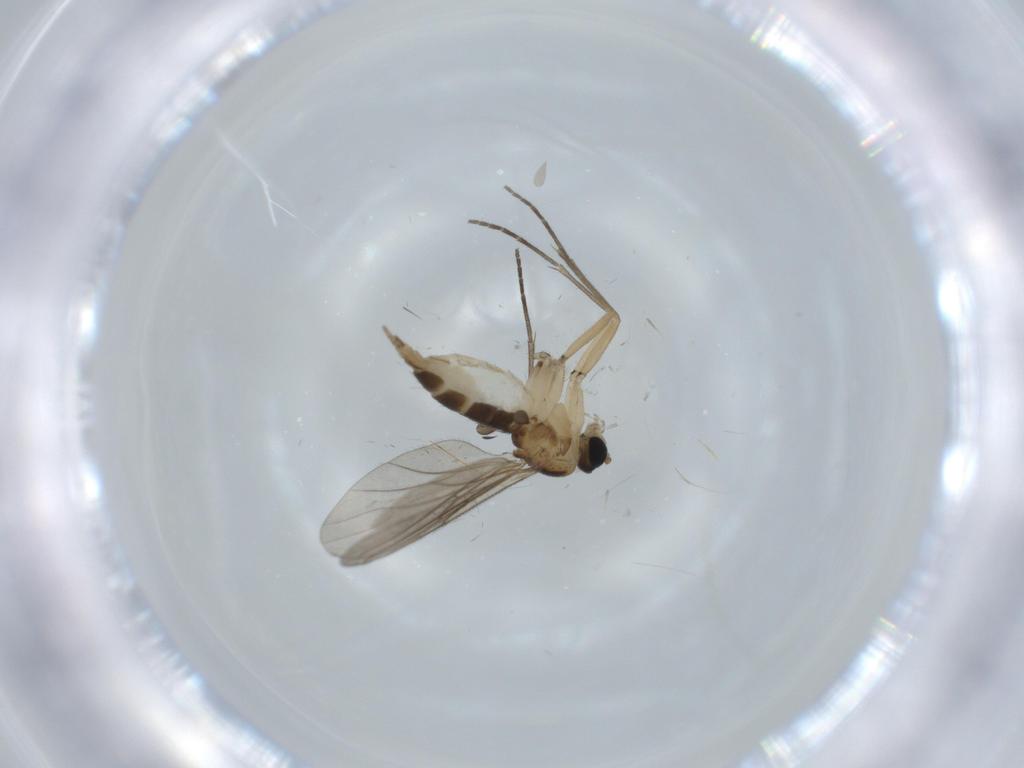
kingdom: Animalia
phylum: Arthropoda
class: Insecta
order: Diptera
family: Sciaridae
